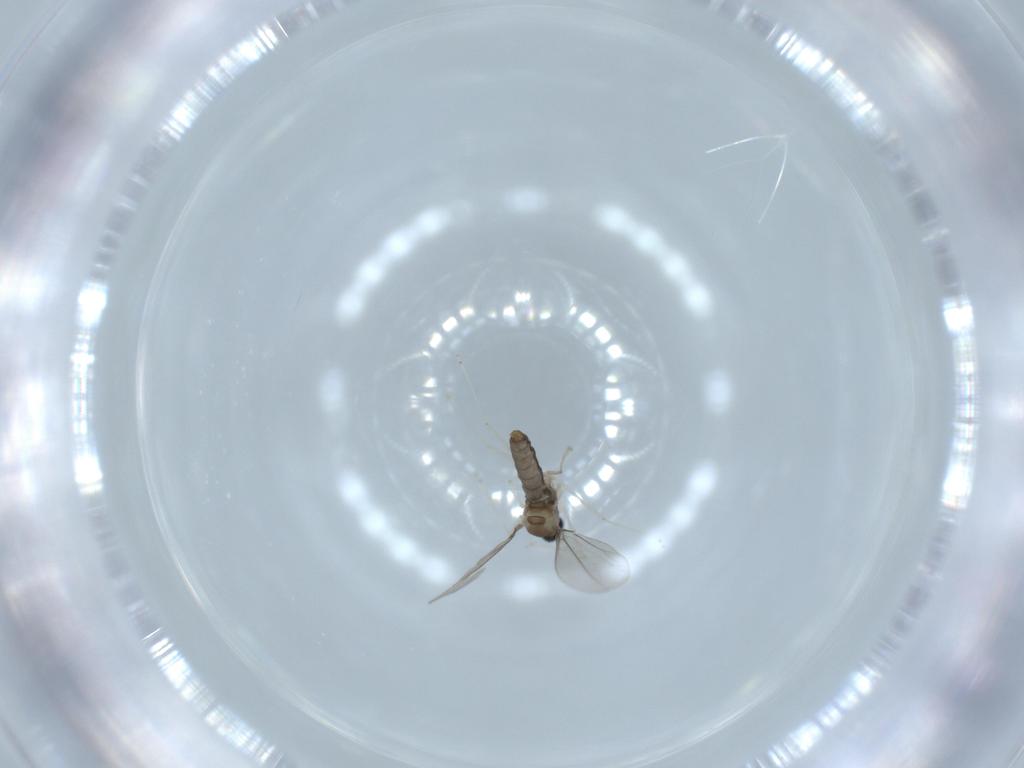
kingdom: Animalia
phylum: Arthropoda
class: Insecta
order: Diptera
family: Cecidomyiidae
